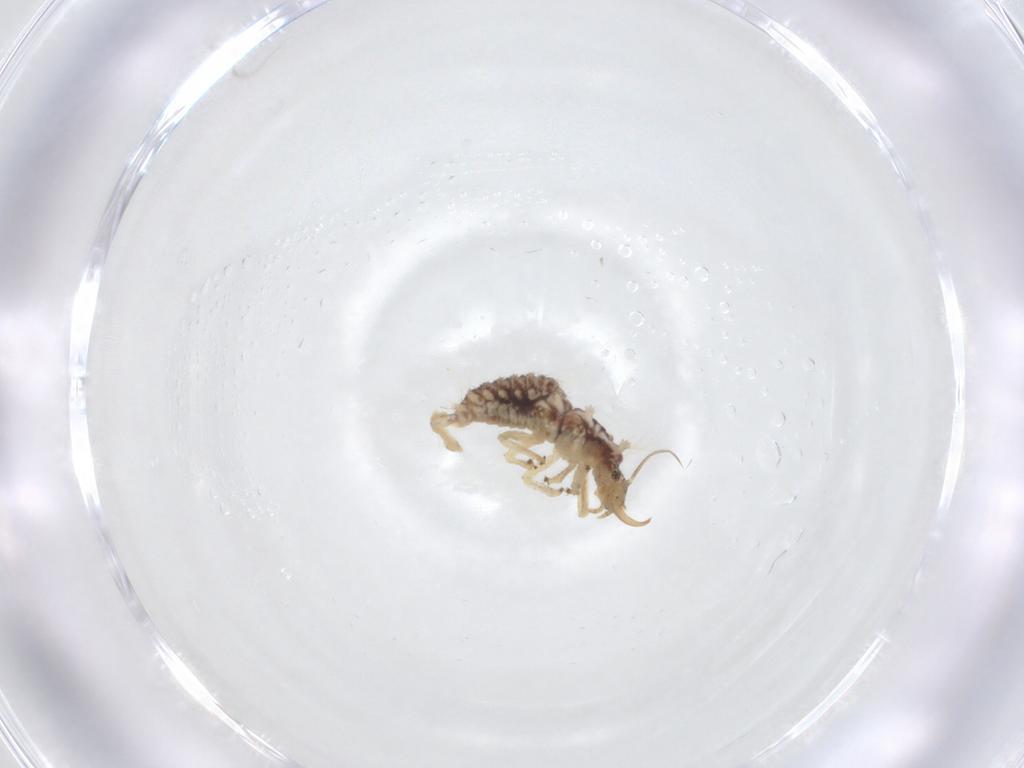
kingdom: Animalia
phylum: Arthropoda
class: Insecta
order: Neuroptera
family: Chrysopidae
